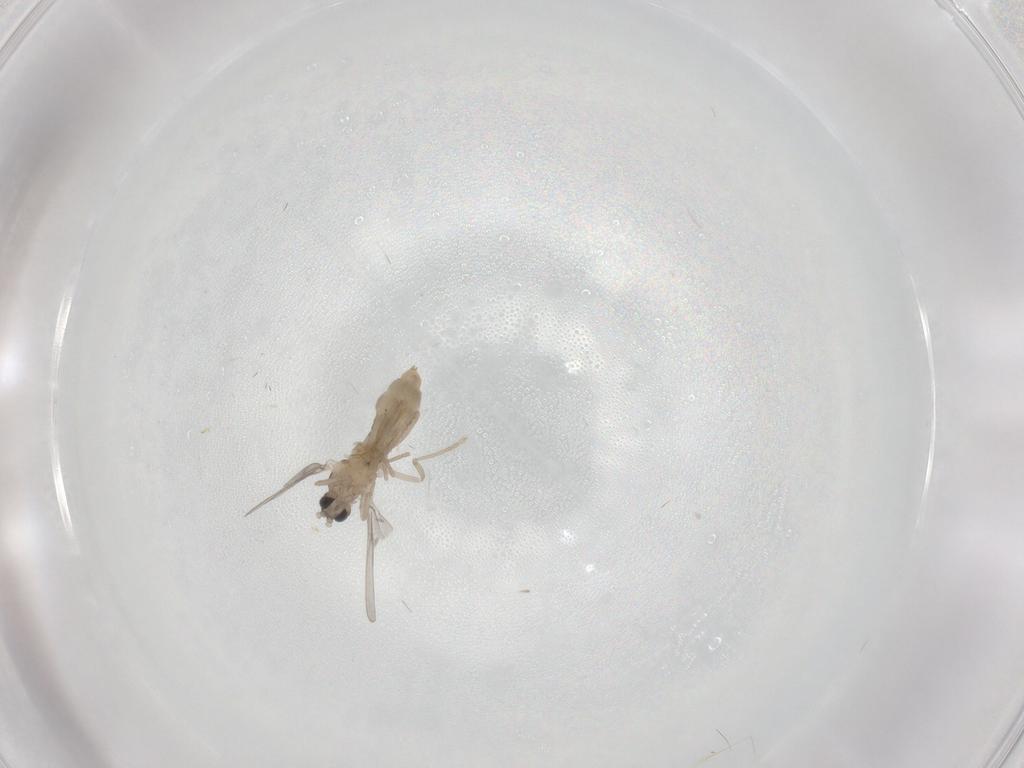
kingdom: Animalia
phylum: Arthropoda
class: Insecta
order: Diptera
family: Cecidomyiidae
